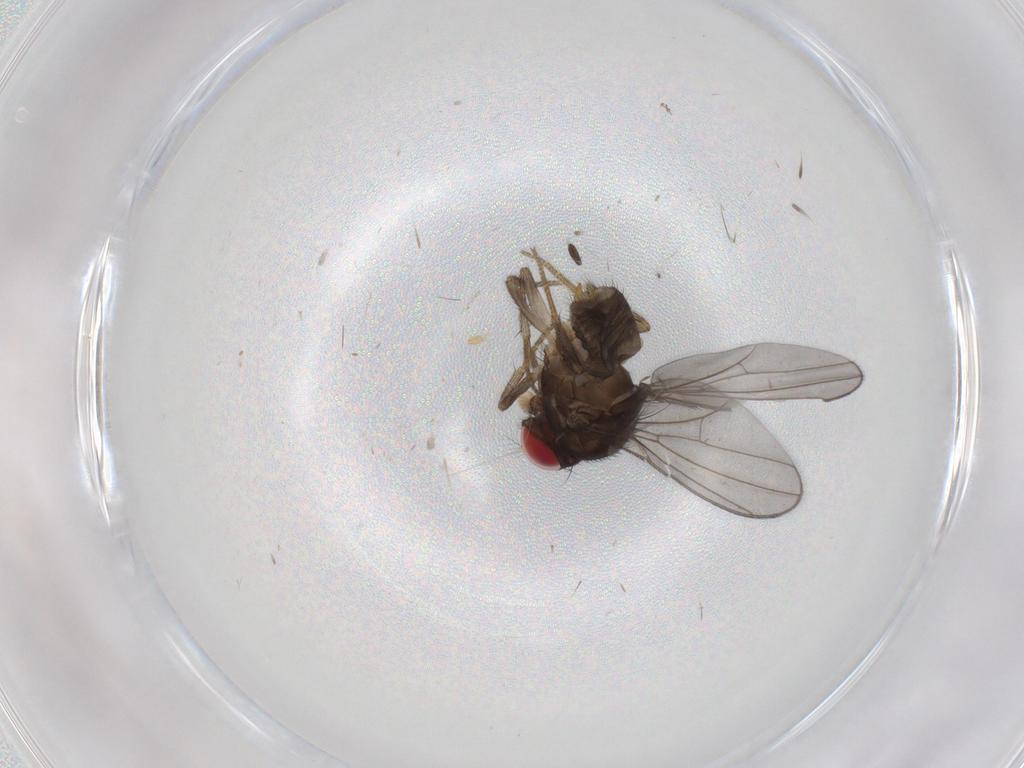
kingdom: Animalia
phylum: Arthropoda
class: Insecta
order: Diptera
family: Drosophilidae
